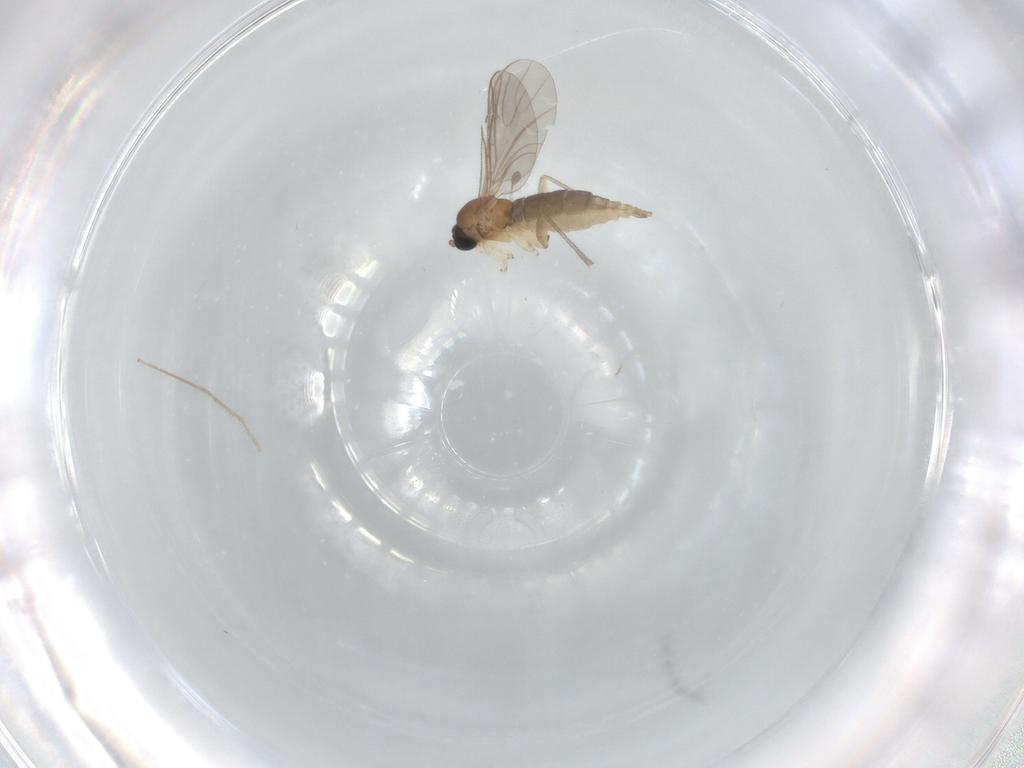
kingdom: Animalia
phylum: Arthropoda
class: Insecta
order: Diptera
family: Sciaridae
